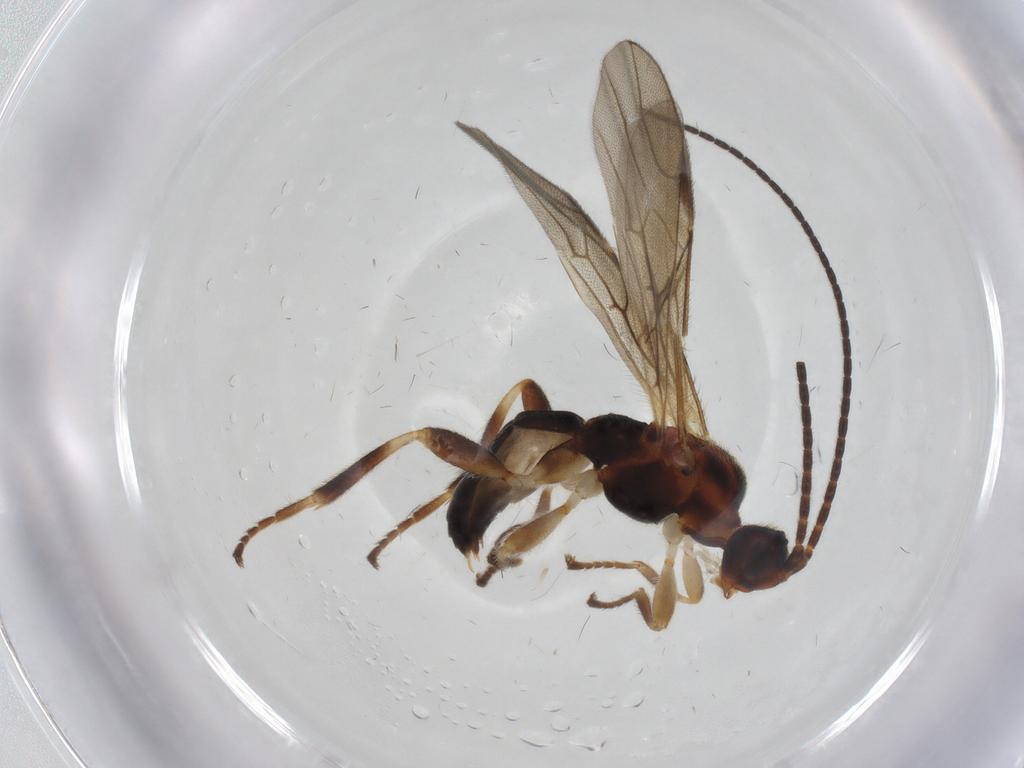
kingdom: Animalia
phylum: Arthropoda
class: Insecta
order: Hymenoptera
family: Braconidae
